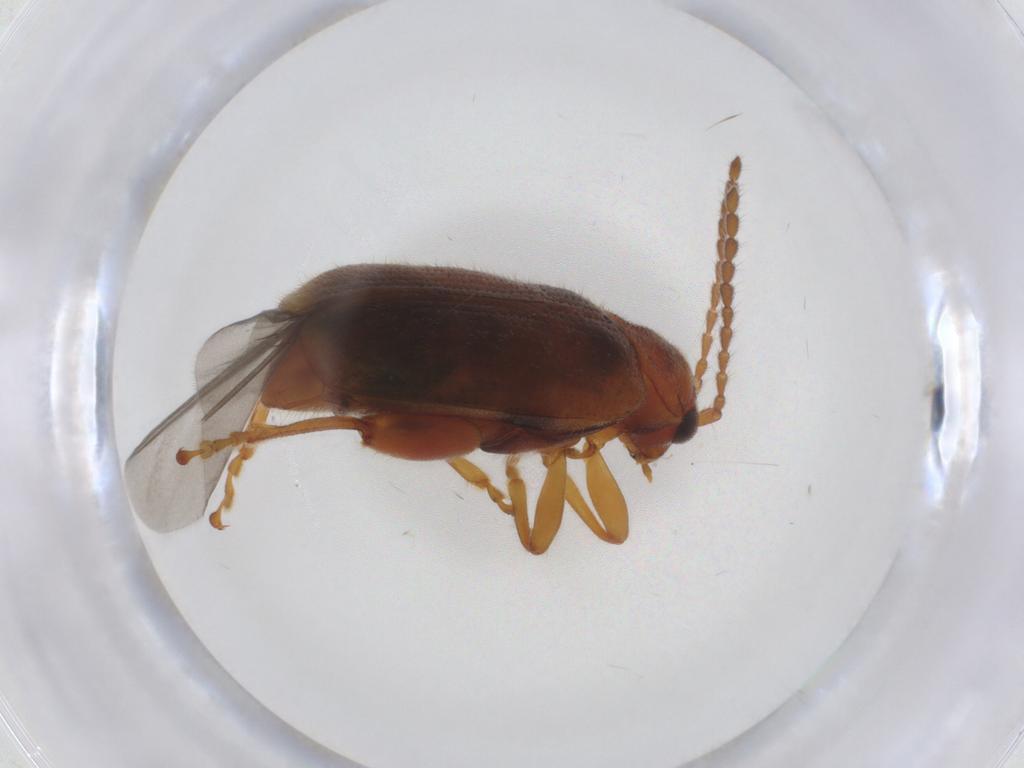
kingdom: Animalia
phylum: Arthropoda
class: Insecta
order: Coleoptera
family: Chrysomelidae
